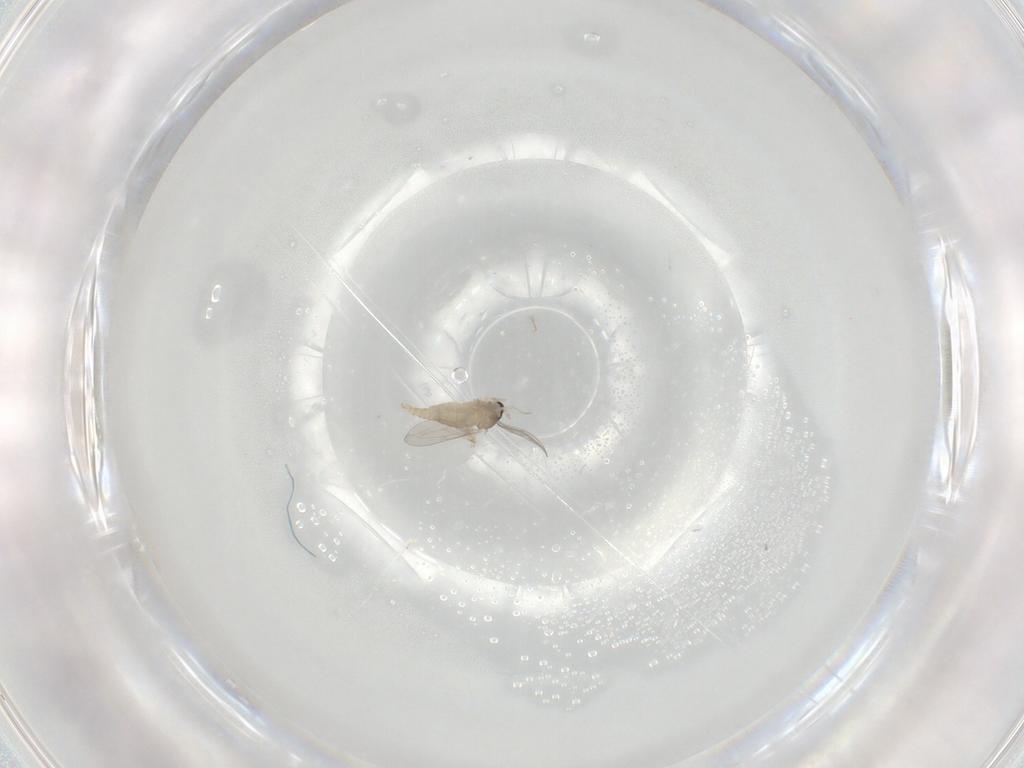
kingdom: Animalia
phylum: Arthropoda
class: Insecta
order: Diptera
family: Cecidomyiidae
